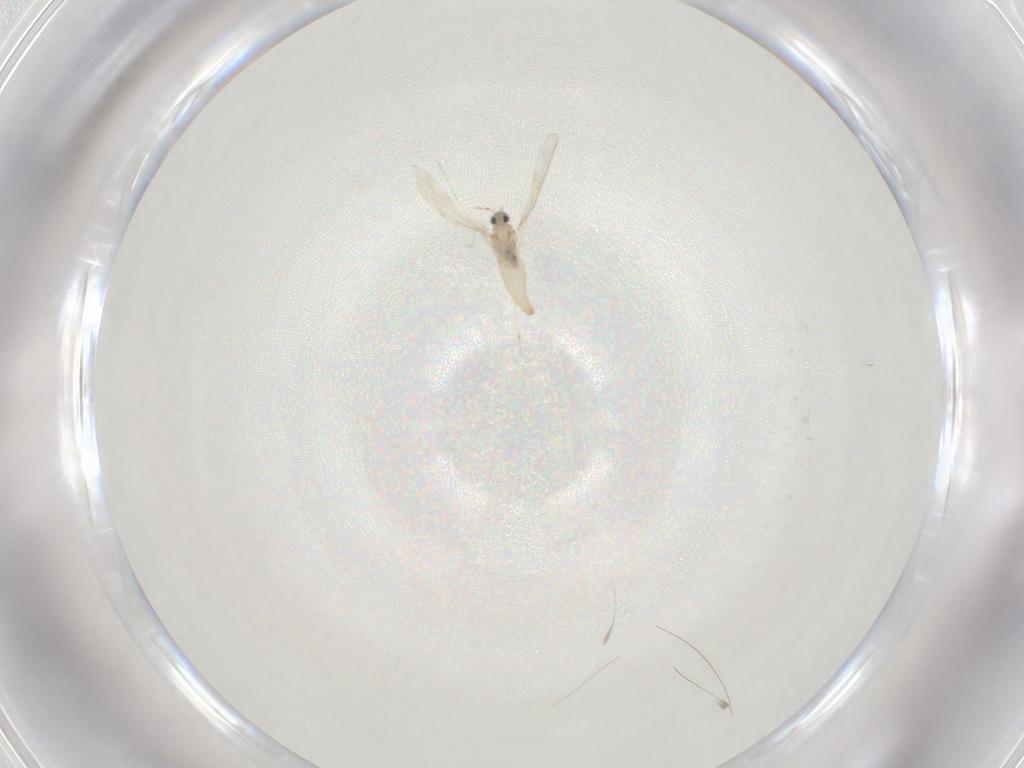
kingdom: Animalia
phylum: Arthropoda
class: Insecta
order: Diptera
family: Cecidomyiidae
